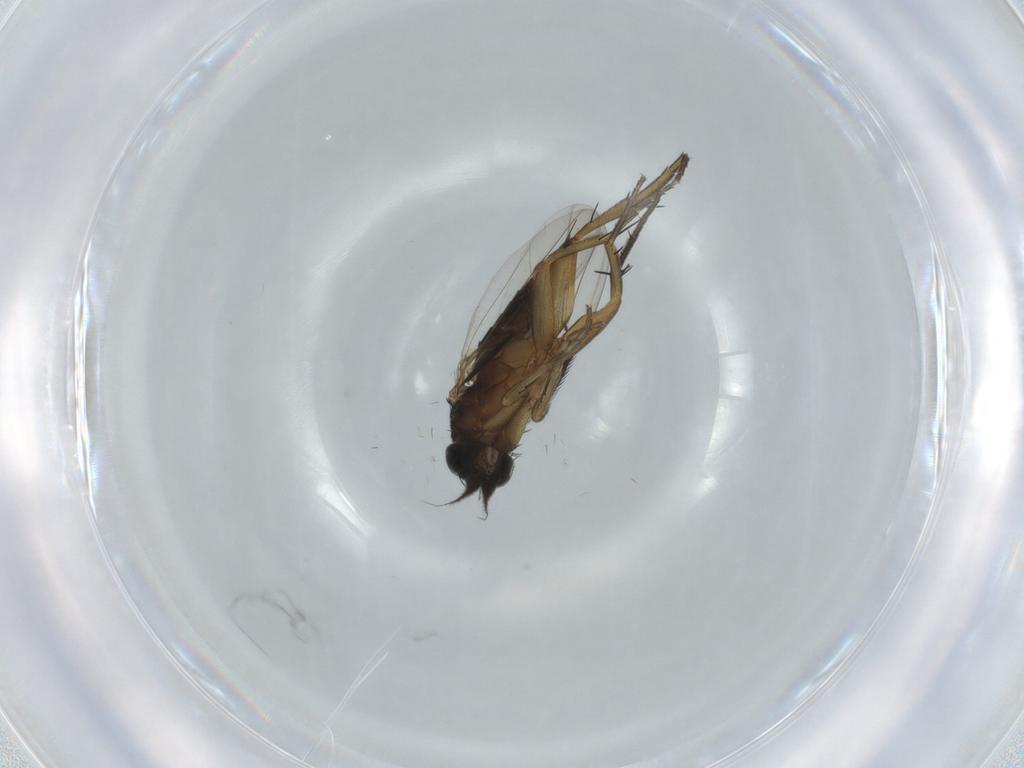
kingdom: Animalia
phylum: Arthropoda
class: Insecta
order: Diptera
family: Phoridae
